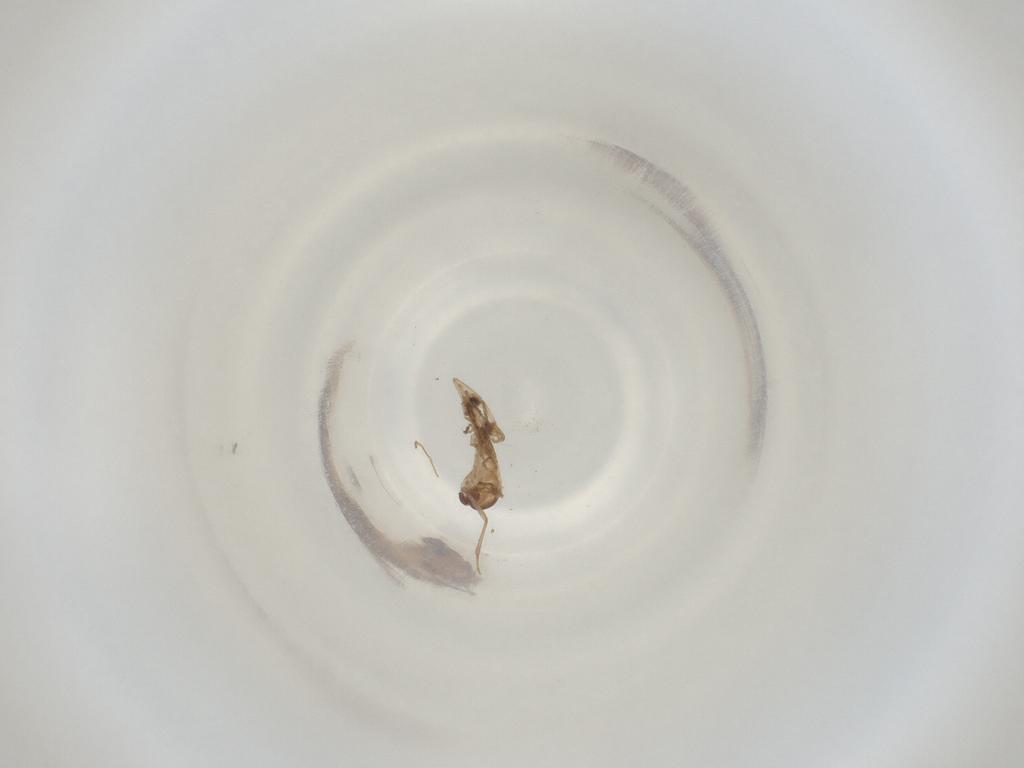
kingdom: Animalia
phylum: Arthropoda
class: Insecta
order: Diptera
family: Cecidomyiidae
